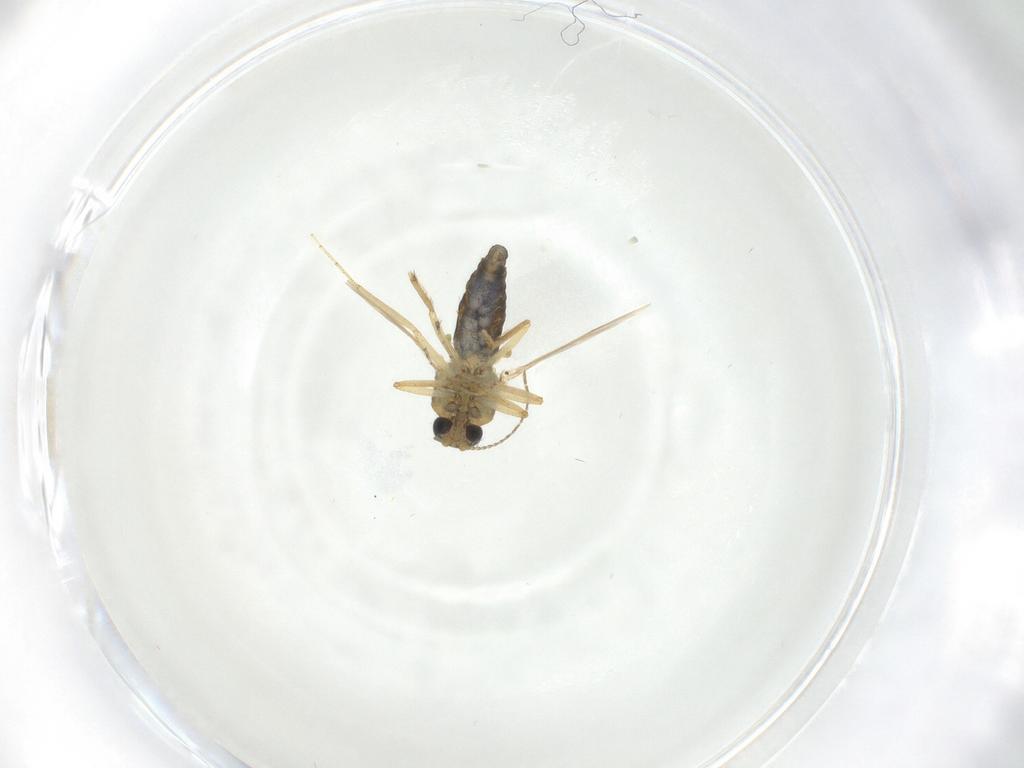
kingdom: Animalia
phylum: Arthropoda
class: Insecta
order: Diptera
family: Ceratopogonidae
